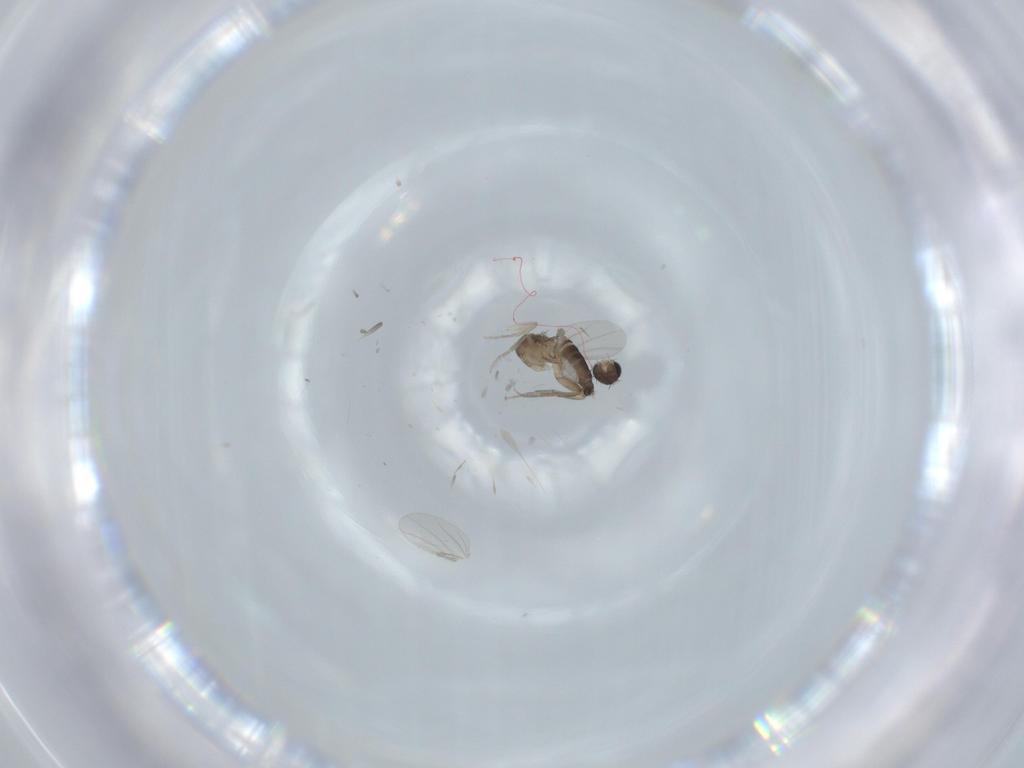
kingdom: Animalia
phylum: Arthropoda
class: Insecta
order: Diptera
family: Phoridae
